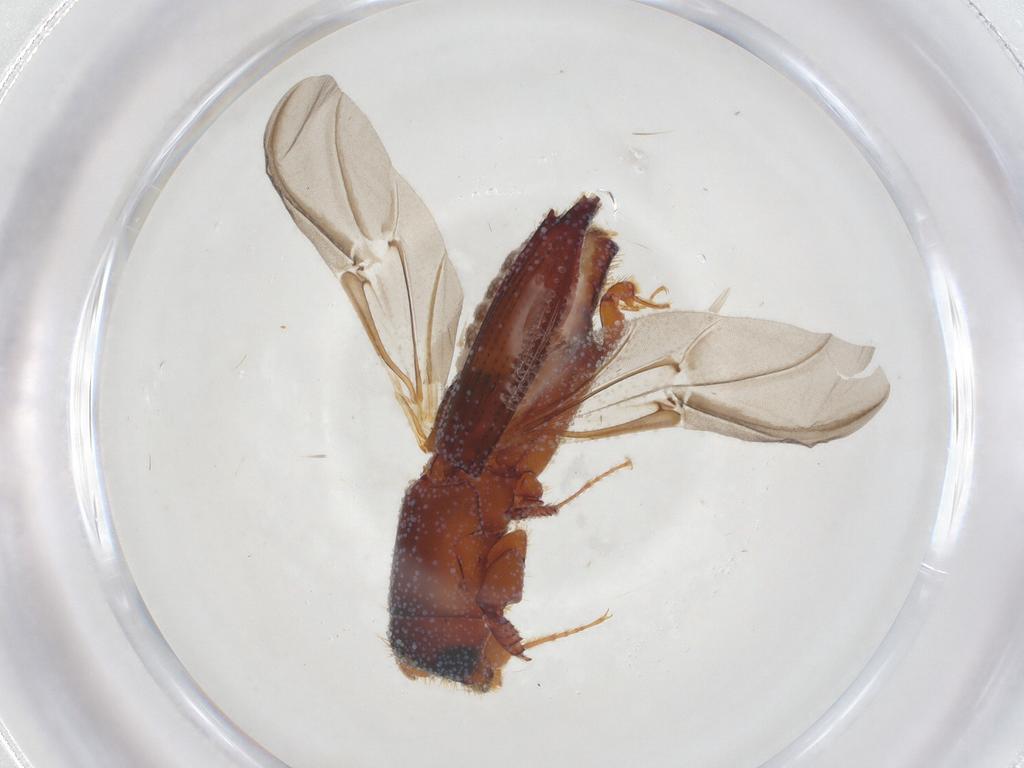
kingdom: Animalia
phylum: Arthropoda
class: Insecta
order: Coleoptera
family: Curculionidae
